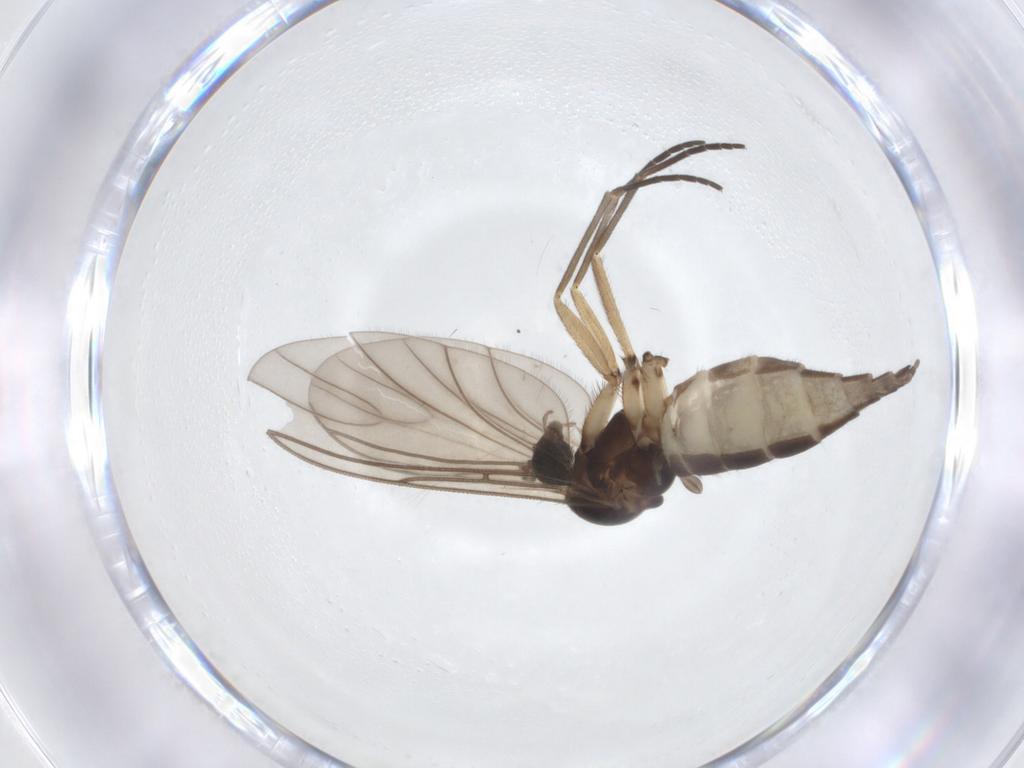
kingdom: Animalia
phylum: Arthropoda
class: Insecta
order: Diptera
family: Sciaridae
